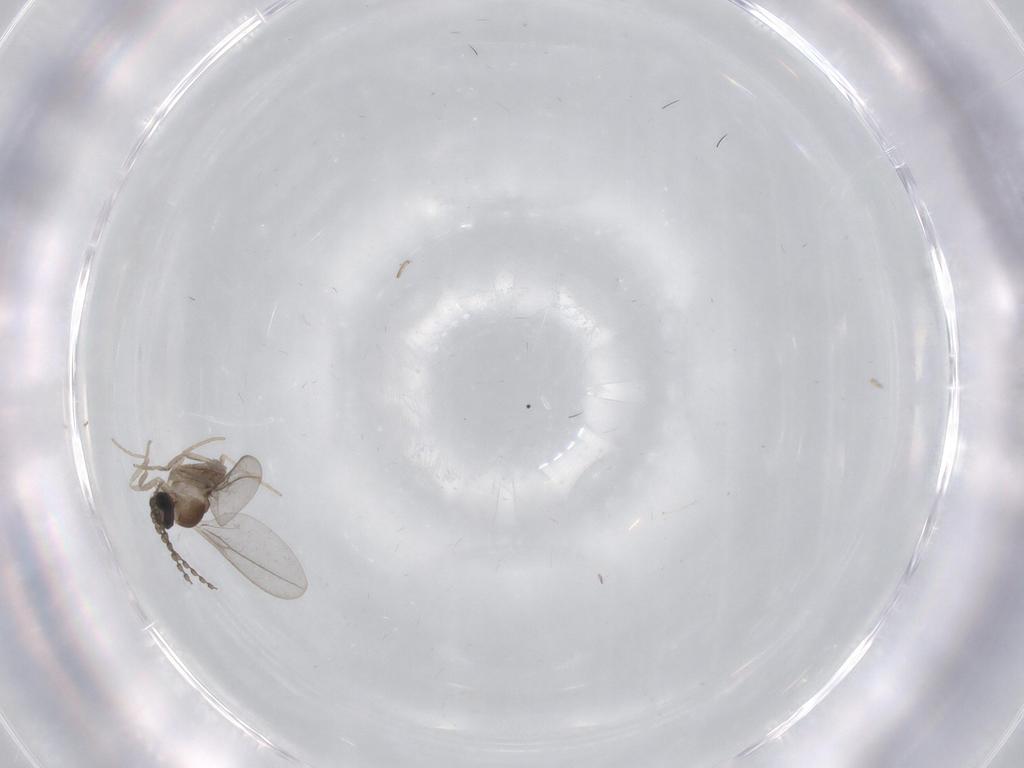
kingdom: Animalia
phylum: Arthropoda
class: Insecta
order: Diptera
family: Cecidomyiidae
